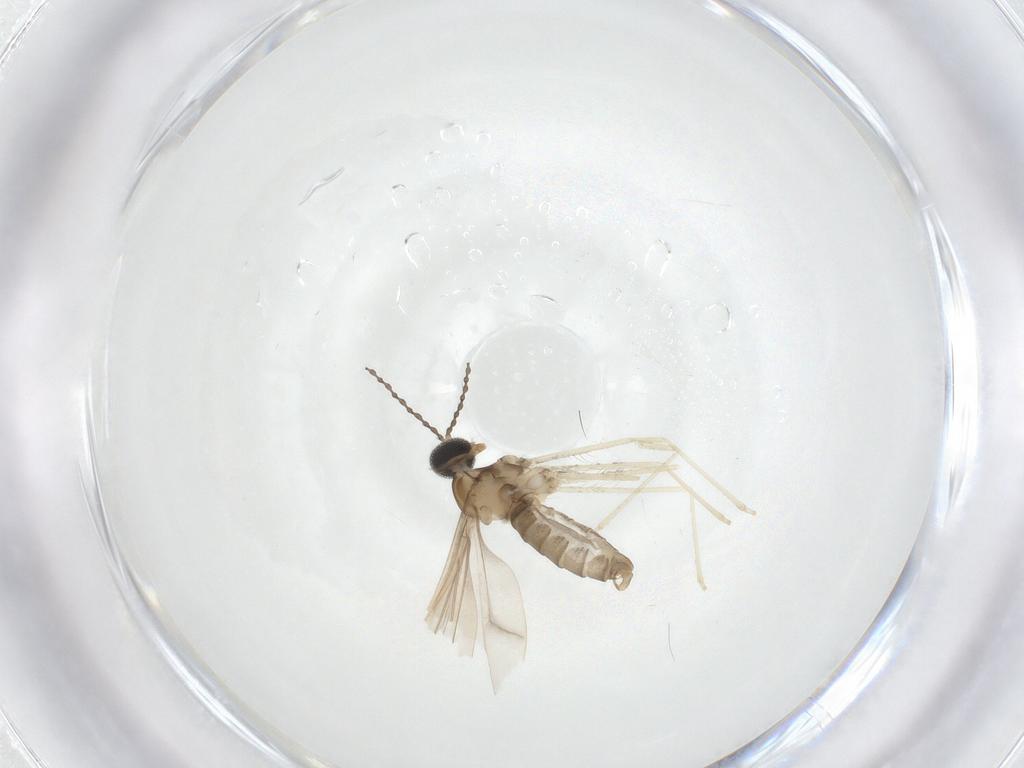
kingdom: Animalia
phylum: Arthropoda
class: Insecta
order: Diptera
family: Cecidomyiidae
